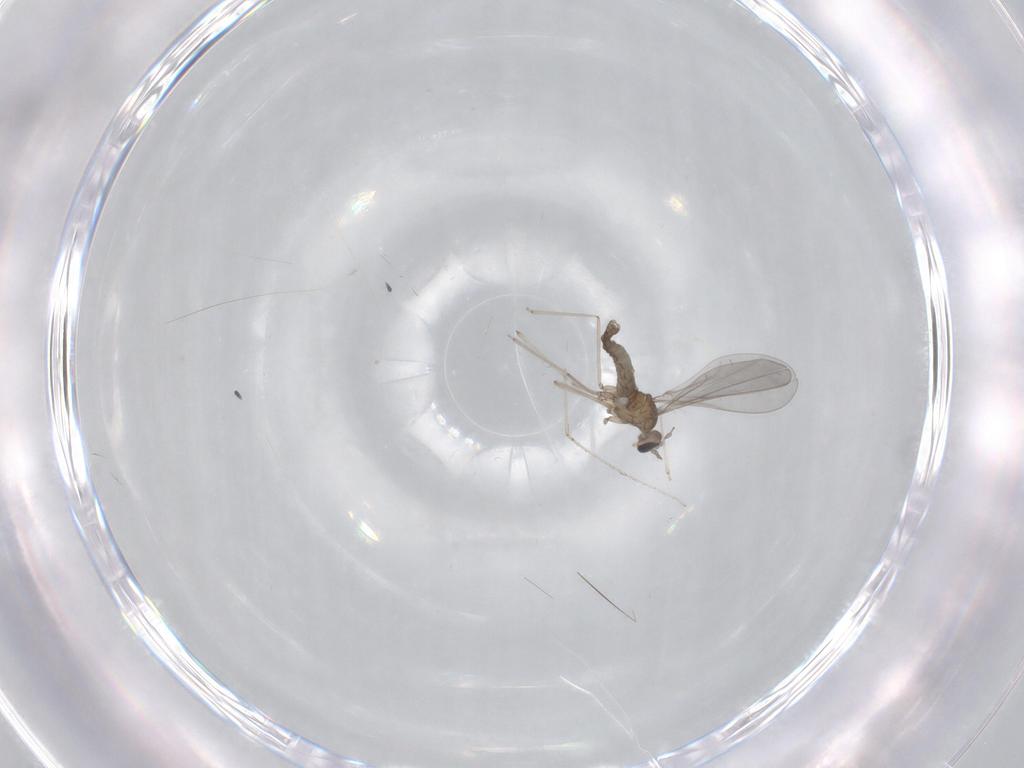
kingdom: Animalia
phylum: Arthropoda
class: Insecta
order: Diptera
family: Cecidomyiidae
